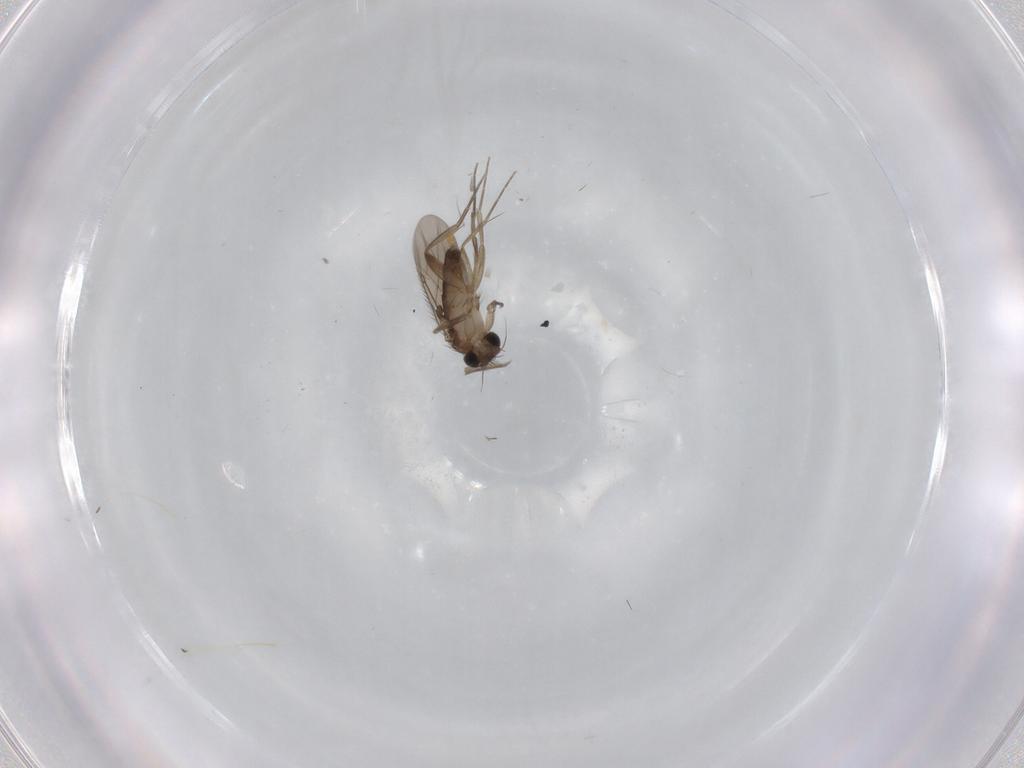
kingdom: Animalia
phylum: Arthropoda
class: Insecta
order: Diptera
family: Phoridae
